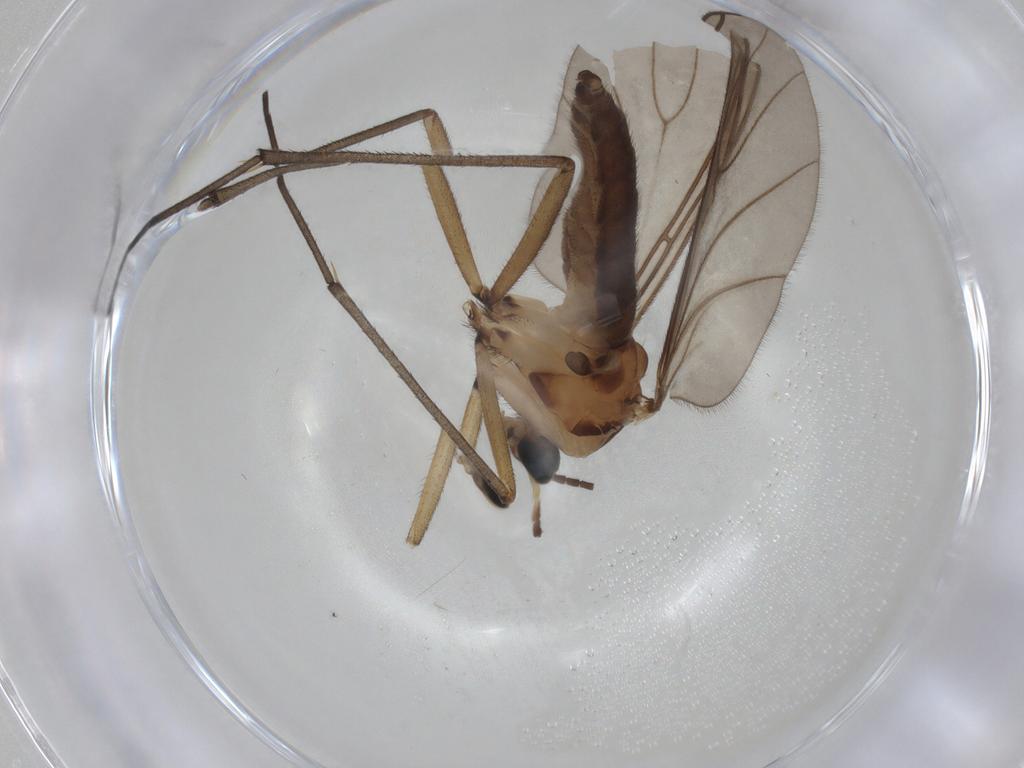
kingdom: Animalia
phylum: Arthropoda
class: Insecta
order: Diptera
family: Sciaridae
